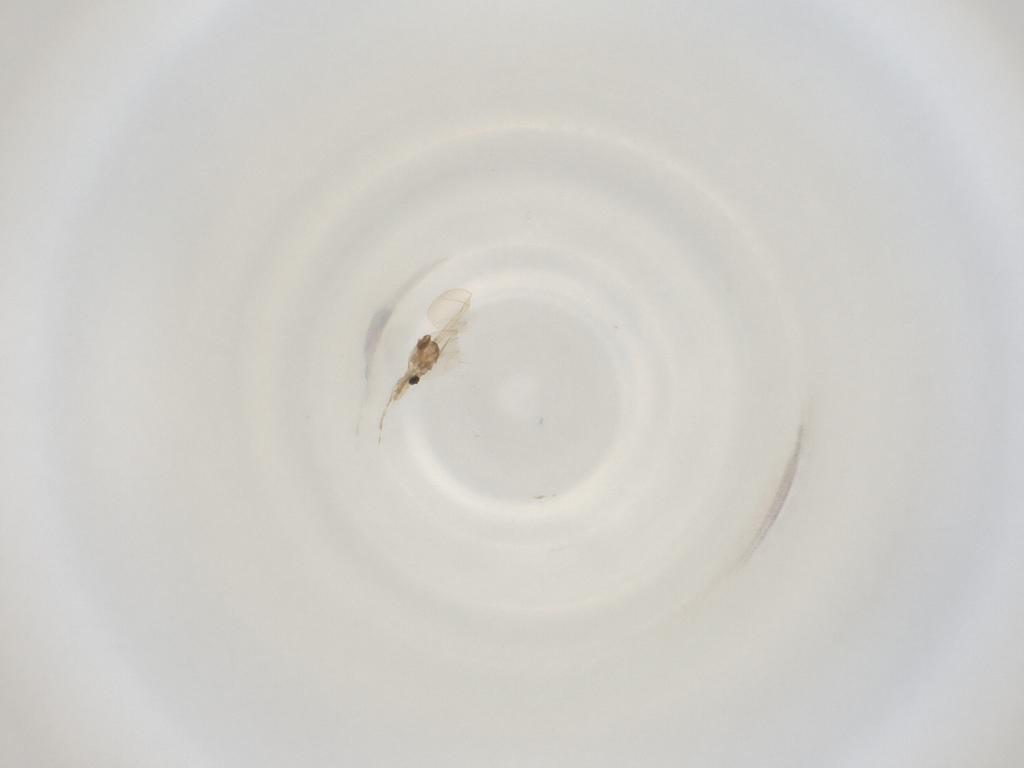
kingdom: Animalia
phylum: Arthropoda
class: Insecta
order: Diptera
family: Cecidomyiidae
